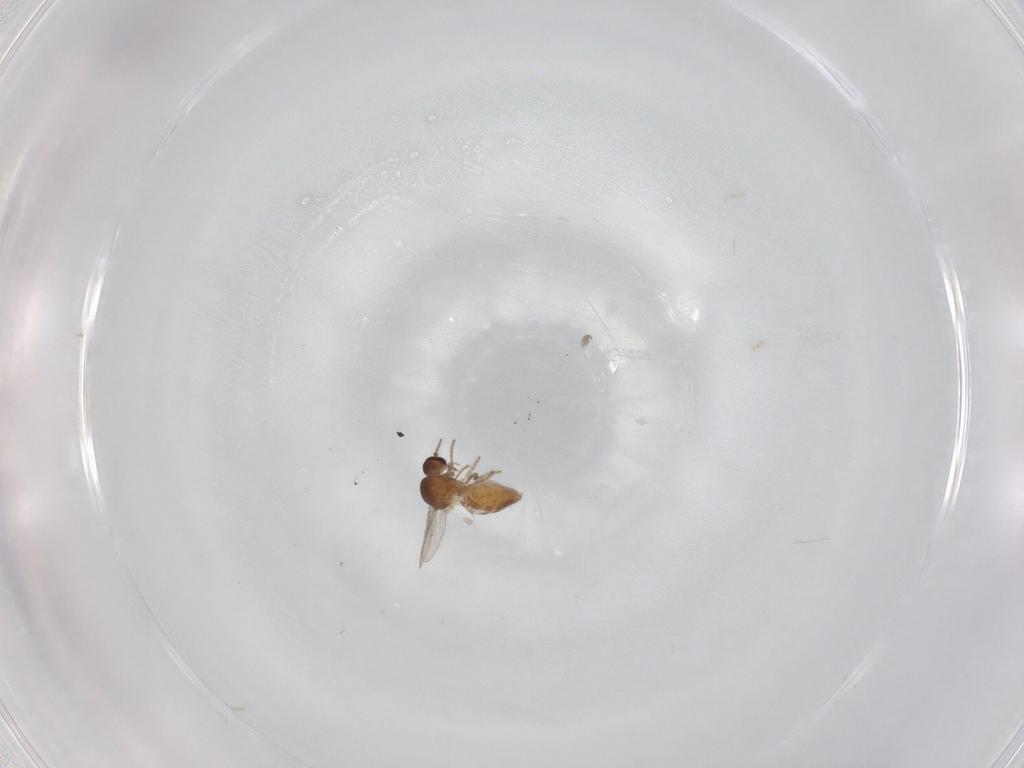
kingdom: Animalia
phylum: Arthropoda
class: Insecta
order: Diptera
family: Ceratopogonidae
